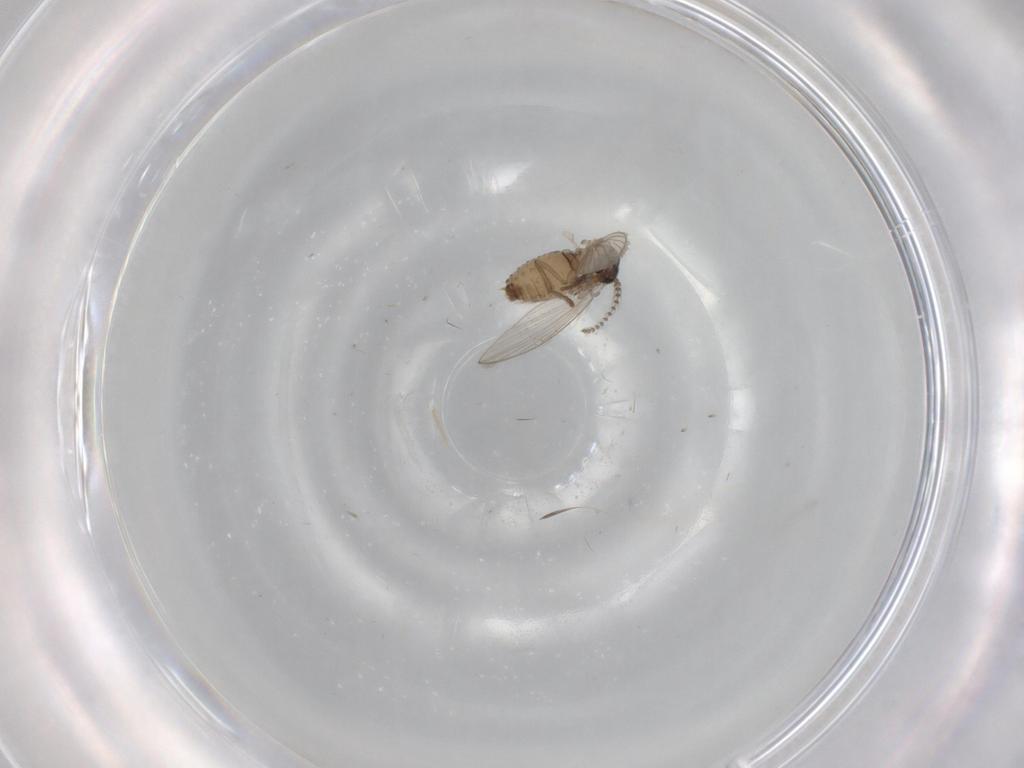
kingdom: Animalia
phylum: Arthropoda
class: Insecta
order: Diptera
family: Psychodidae
